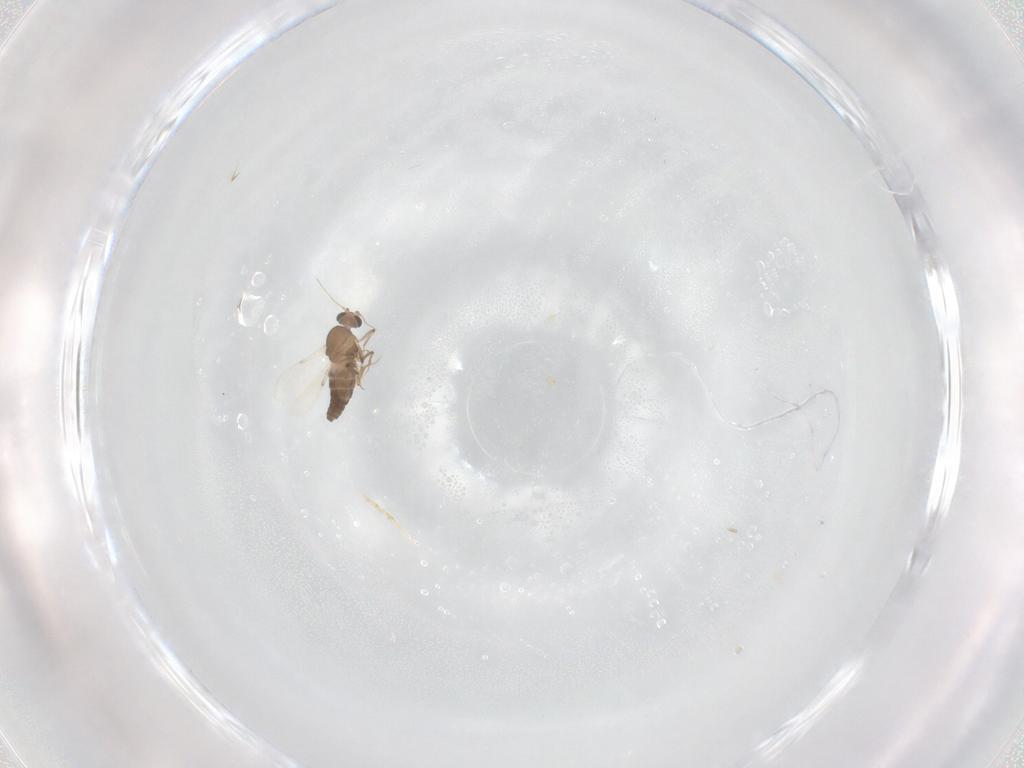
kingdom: Animalia
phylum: Arthropoda
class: Insecta
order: Diptera
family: Ceratopogonidae
